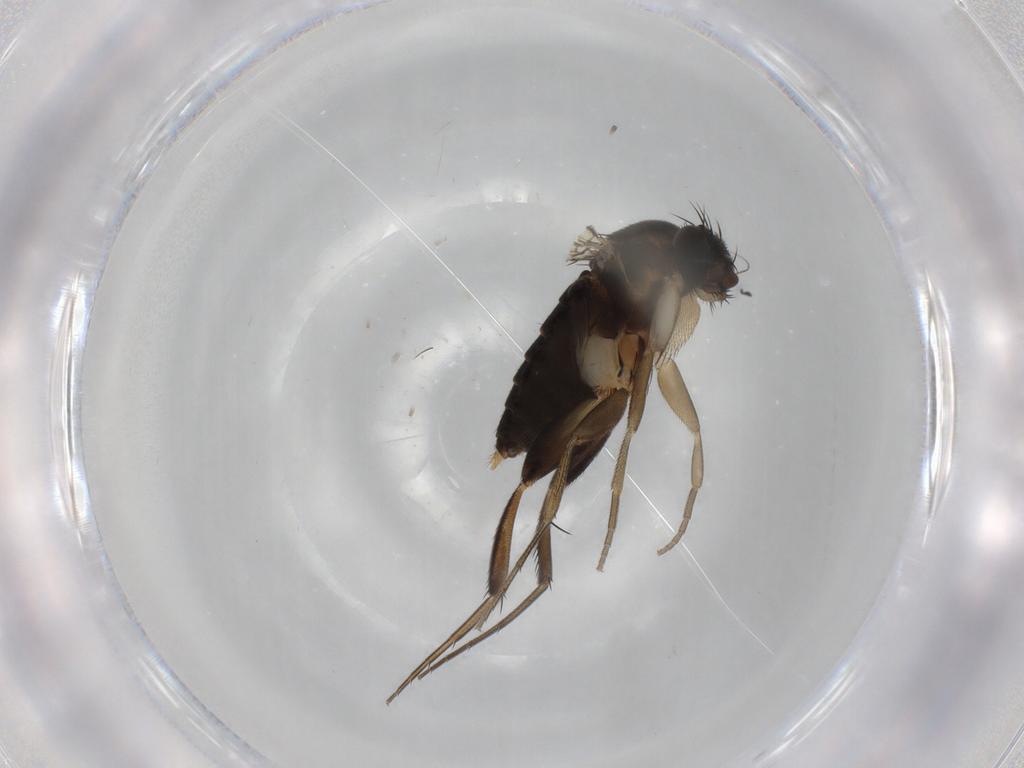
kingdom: Animalia
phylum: Arthropoda
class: Insecta
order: Diptera
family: Phoridae
